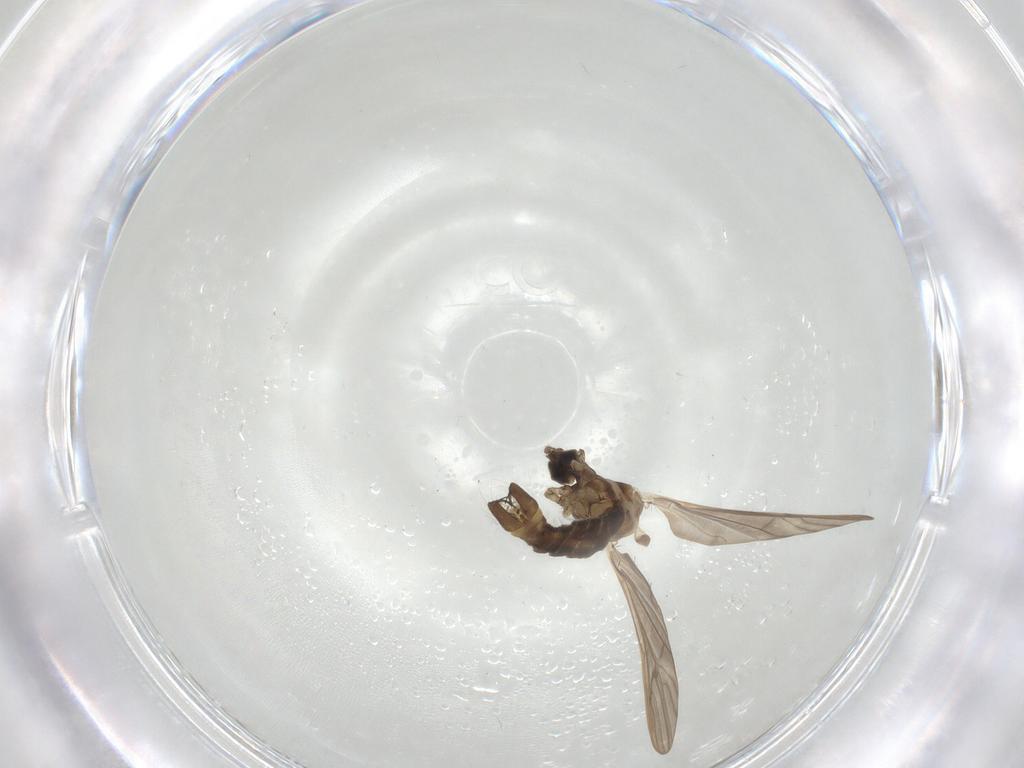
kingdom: Animalia
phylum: Arthropoda
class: Insecta
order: Diptera
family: Limoniidae
